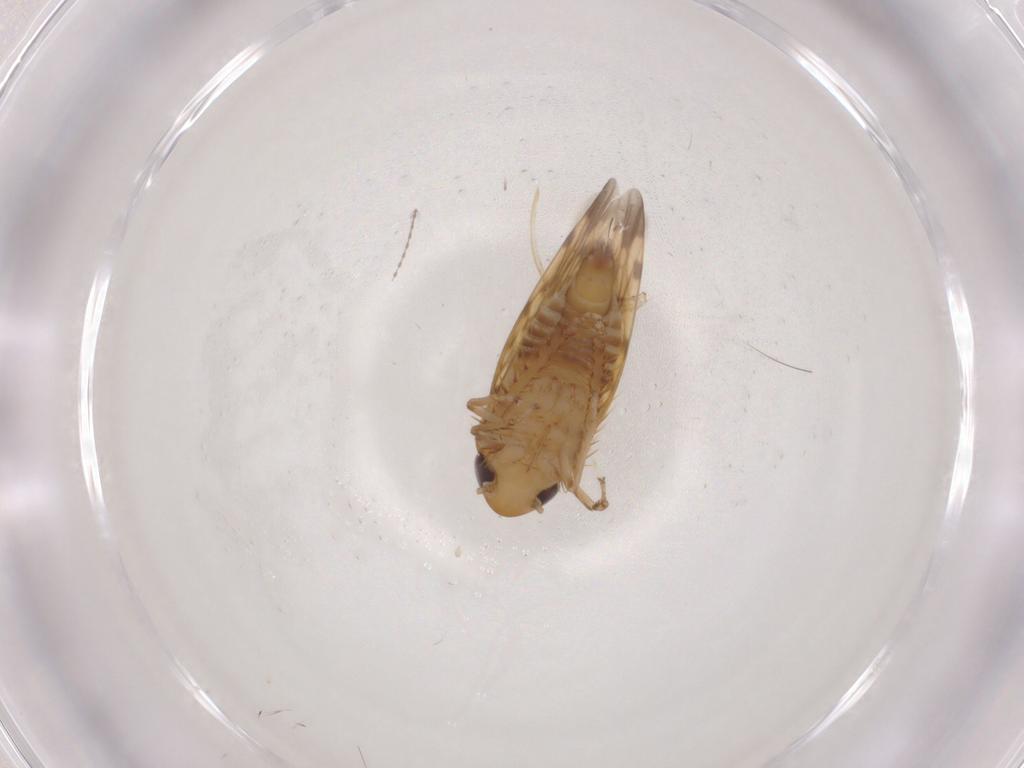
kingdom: Animalia
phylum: Arthropoda
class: Insecta
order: Hemiptera
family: Cicadellidae
